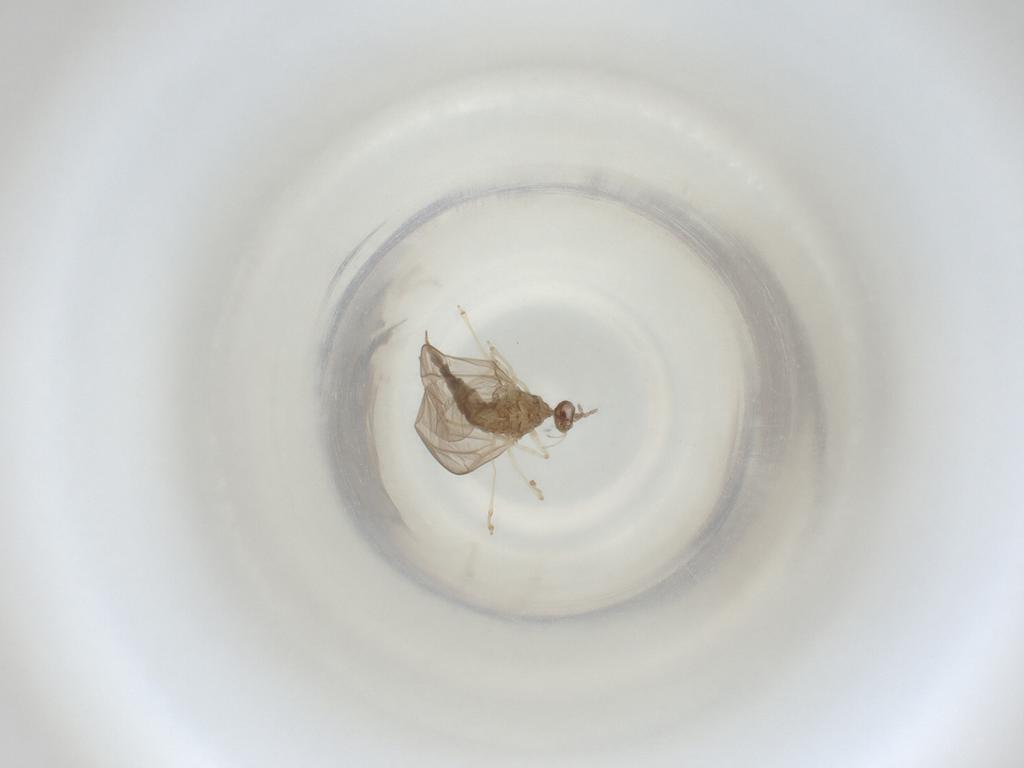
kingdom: Animalia
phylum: Arthropoda
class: Insecta
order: Diptera
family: Cecidomyiidae
